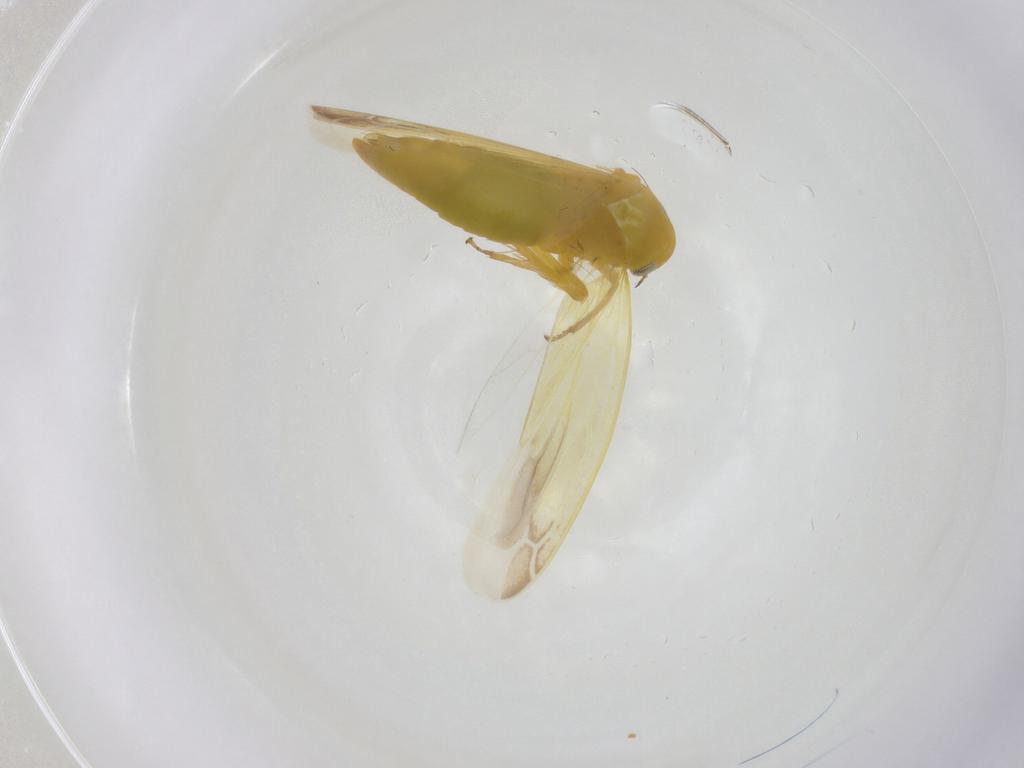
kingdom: Animalia
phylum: Arthropoda
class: Insecta
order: Hemiptera
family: Cicadellidae
